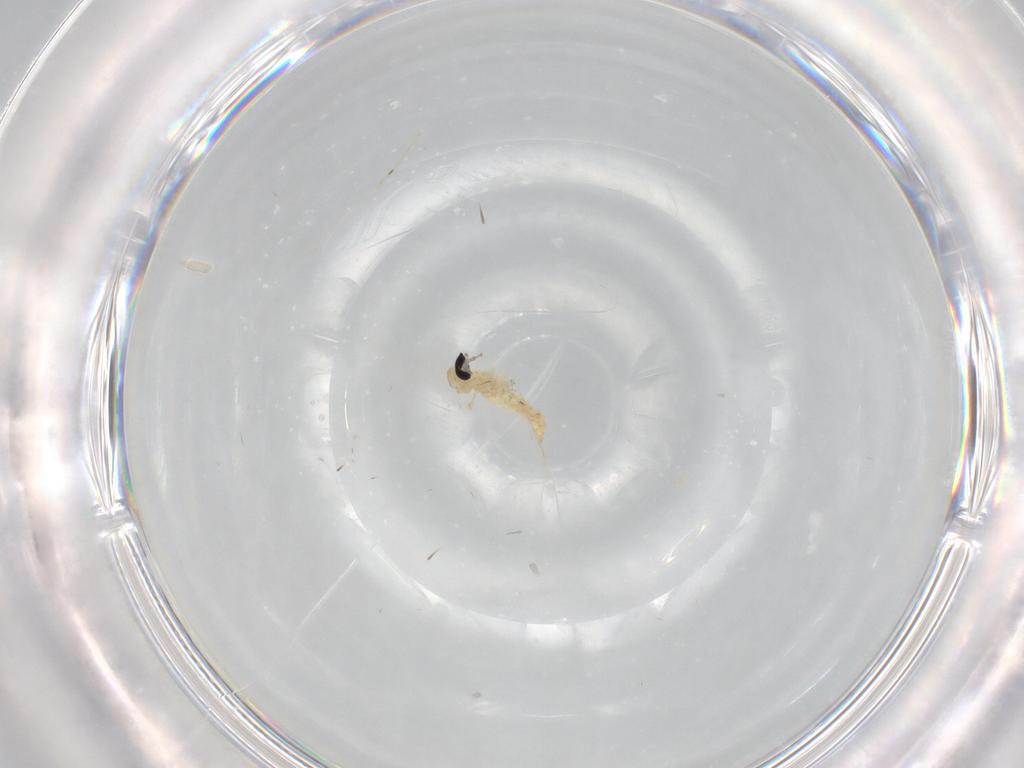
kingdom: Animalia
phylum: Arthropoda
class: Insecta
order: Diptera
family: Cecidomyiidae
